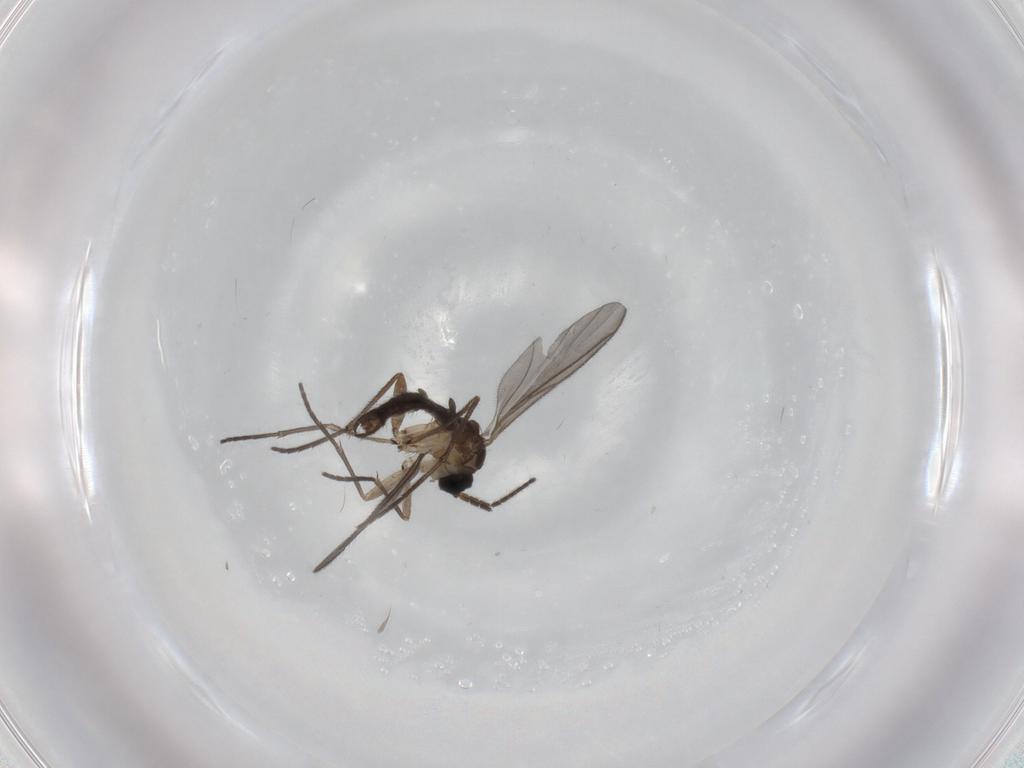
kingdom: Animalia
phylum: Arthropoda
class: Insecta
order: Diptera
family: Sciaridae
